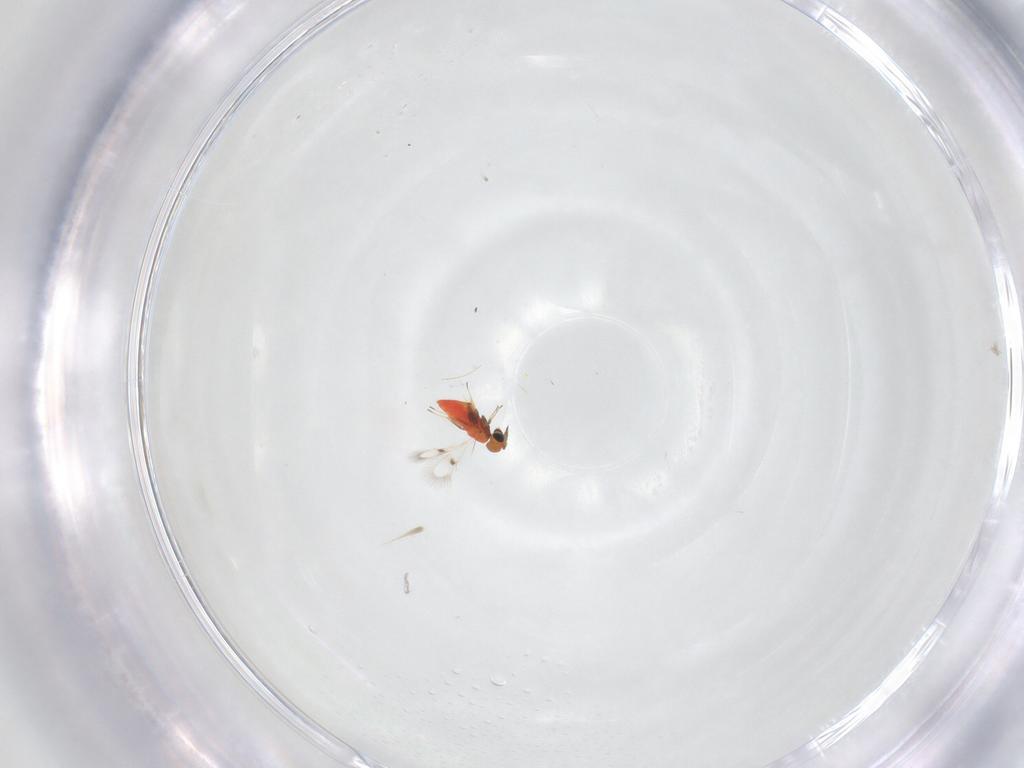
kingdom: Animalia
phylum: Arthropoda
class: Insecta
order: Hymenoptera
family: Trichogrammatidae
